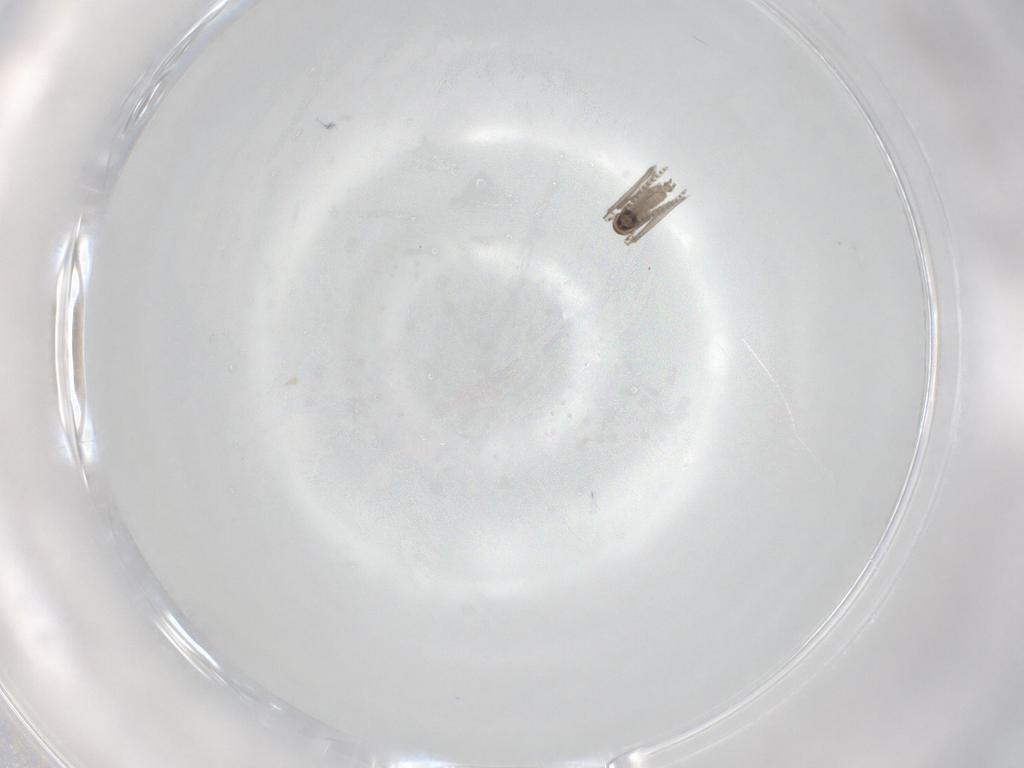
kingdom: Animalia
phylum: Arthropoda
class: Insecta
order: Diptera
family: Psychodidae
